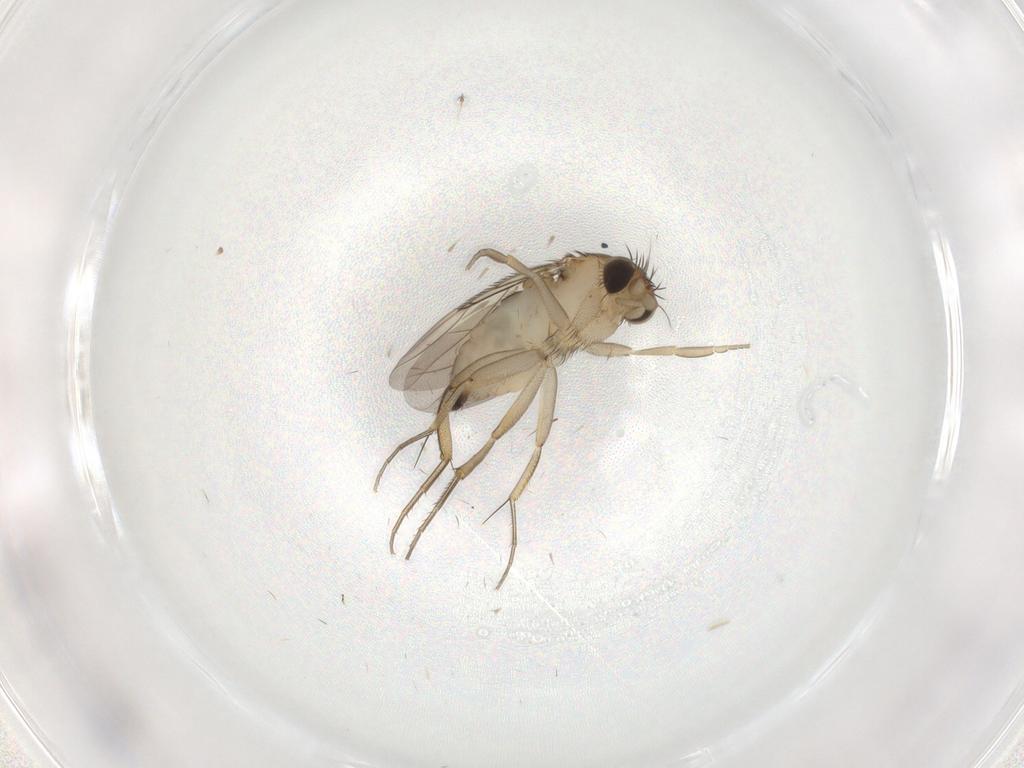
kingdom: Animalia
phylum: Arthropoda
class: Insecta
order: Diptera
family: Phoridae
